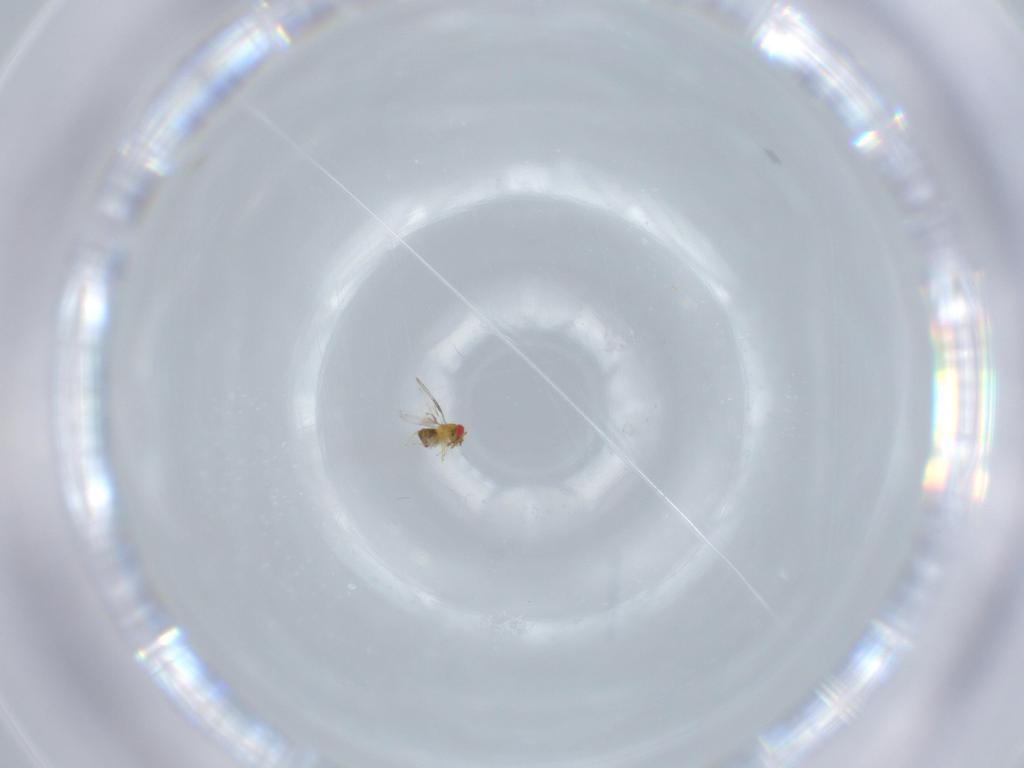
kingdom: Animalia
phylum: Arthropoda
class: Insecta
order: Hymenoptera
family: Trichogrammatidae
